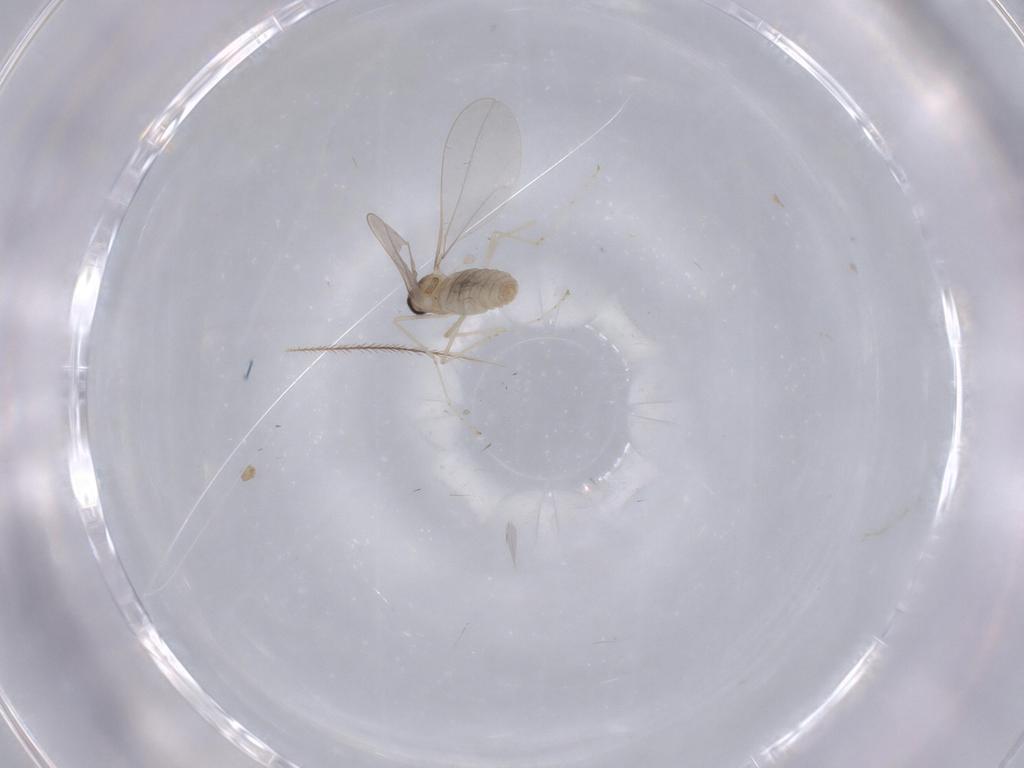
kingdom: Animalia
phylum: Arthropoda
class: Insecta
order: Diptera
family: Cecidomyiidae
